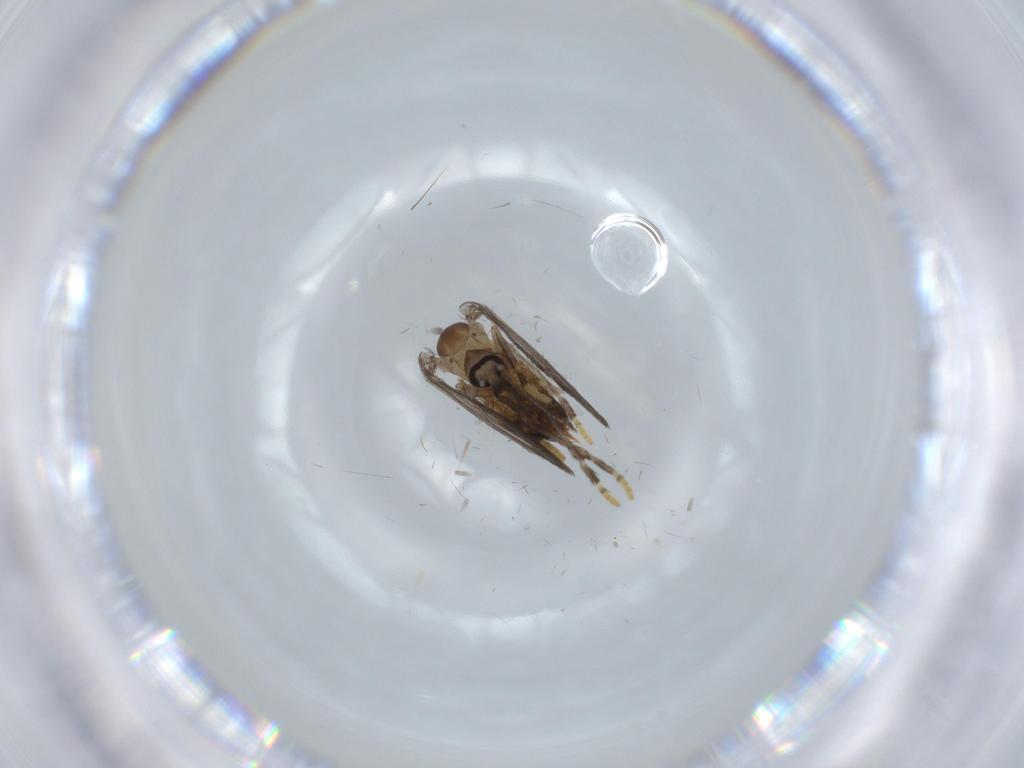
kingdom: Animalia
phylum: Arthropoda
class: Insecta
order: Diptera
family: Psychodidae
